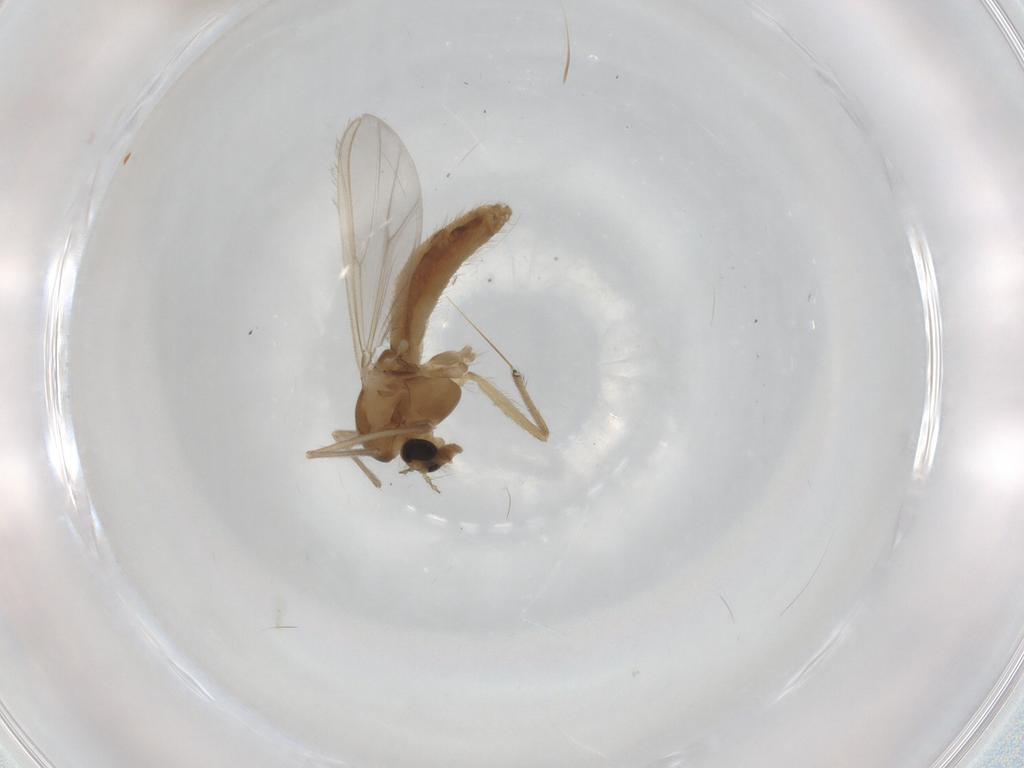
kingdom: Animalia
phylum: Arthropoda
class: Insecta
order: Diptera
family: Chironomidae
